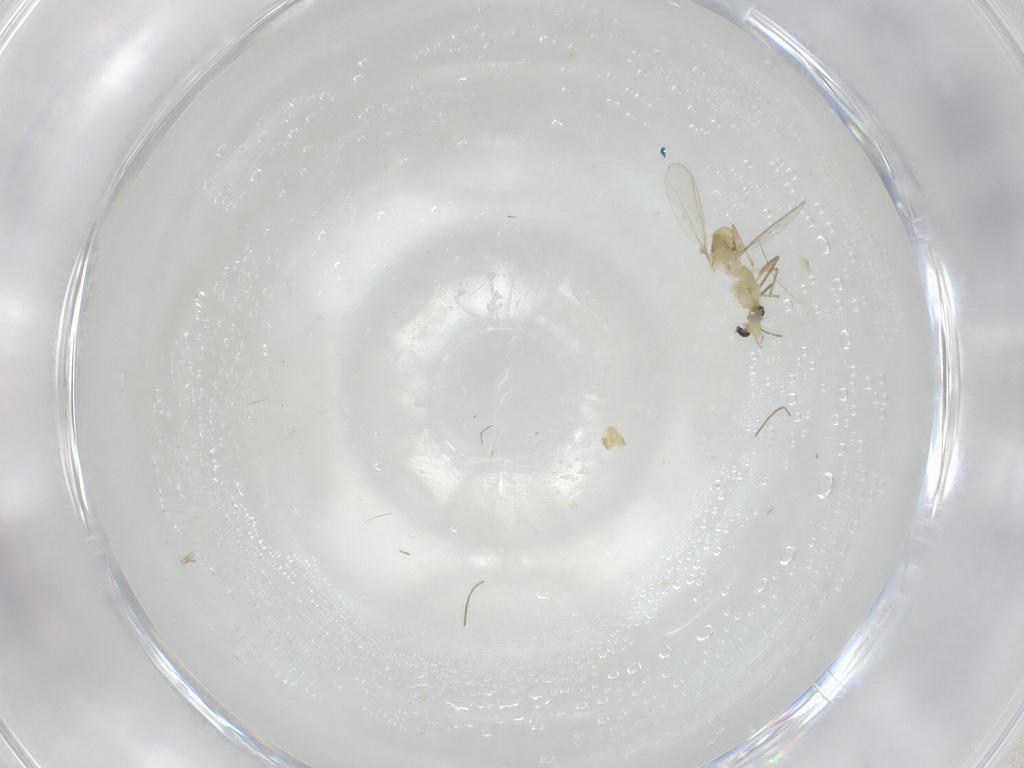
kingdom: Animalia
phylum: Arthropoda
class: Insecta
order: Diptera
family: Chironomidae
